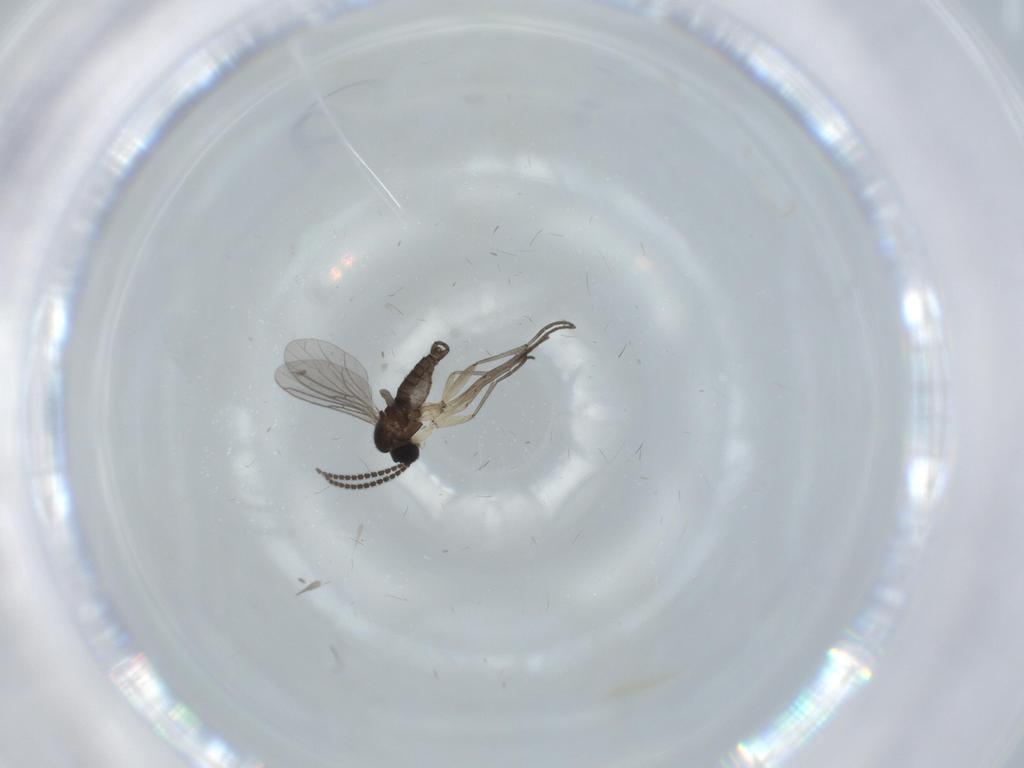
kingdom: Animalia
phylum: Arthropoda
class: Insecta
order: Diptera
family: Sciaridae
